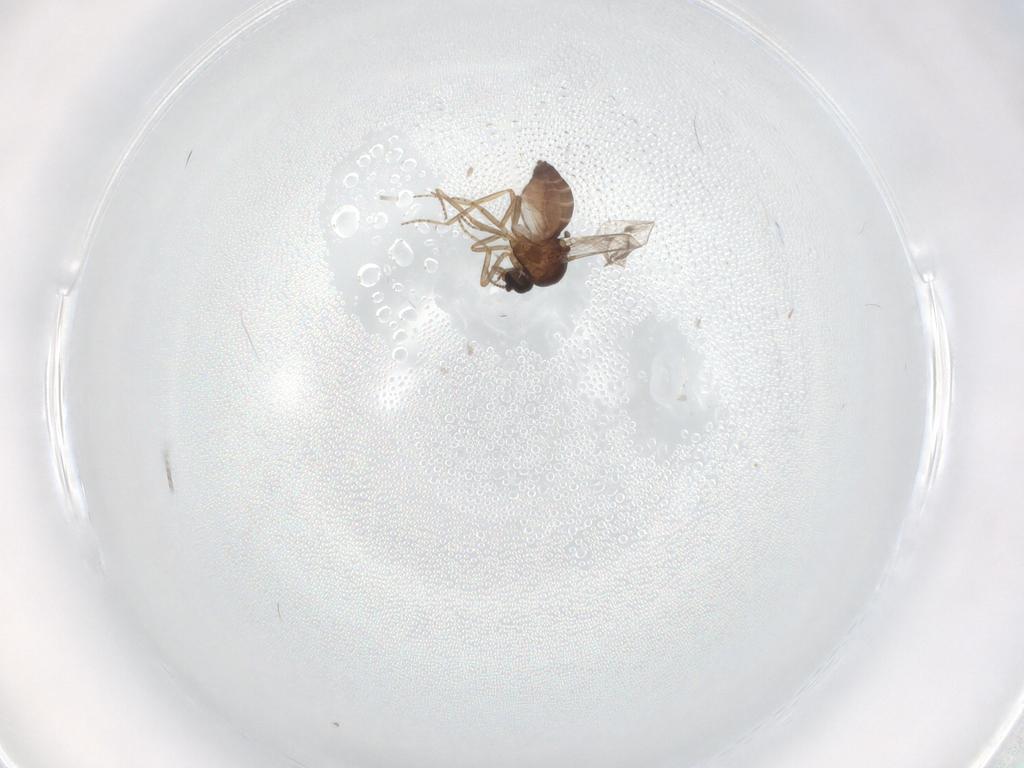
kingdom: Animalia
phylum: Arthropoda
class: Insecta
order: Diptera
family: Ceratopogonidae
